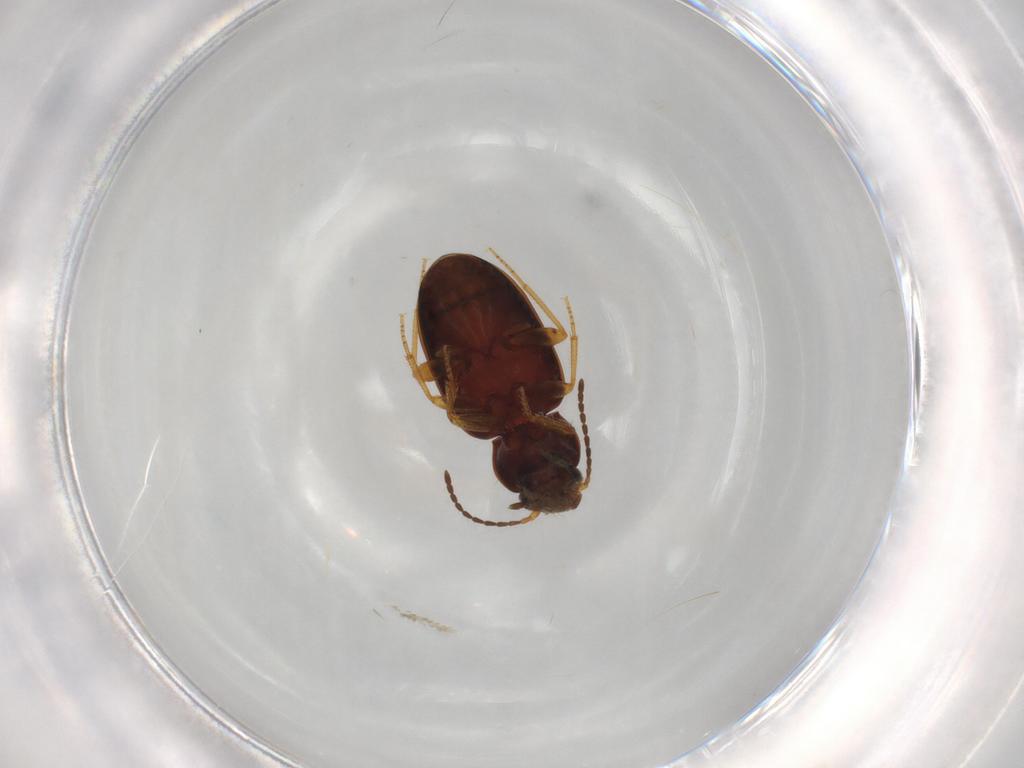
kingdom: Animalia
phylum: Arthropoda
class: Insecta
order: Coleoptera
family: Carabidae
